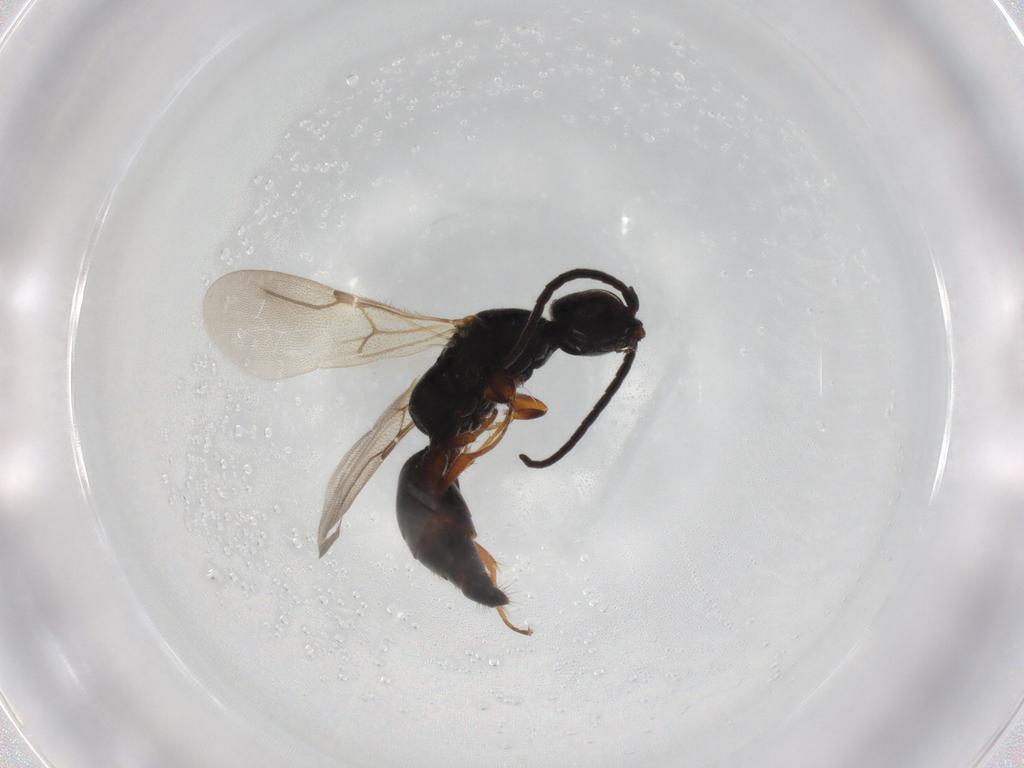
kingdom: Animalia
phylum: Arthropoda
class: Insecta
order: Hymenoptera
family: Bethylidae
